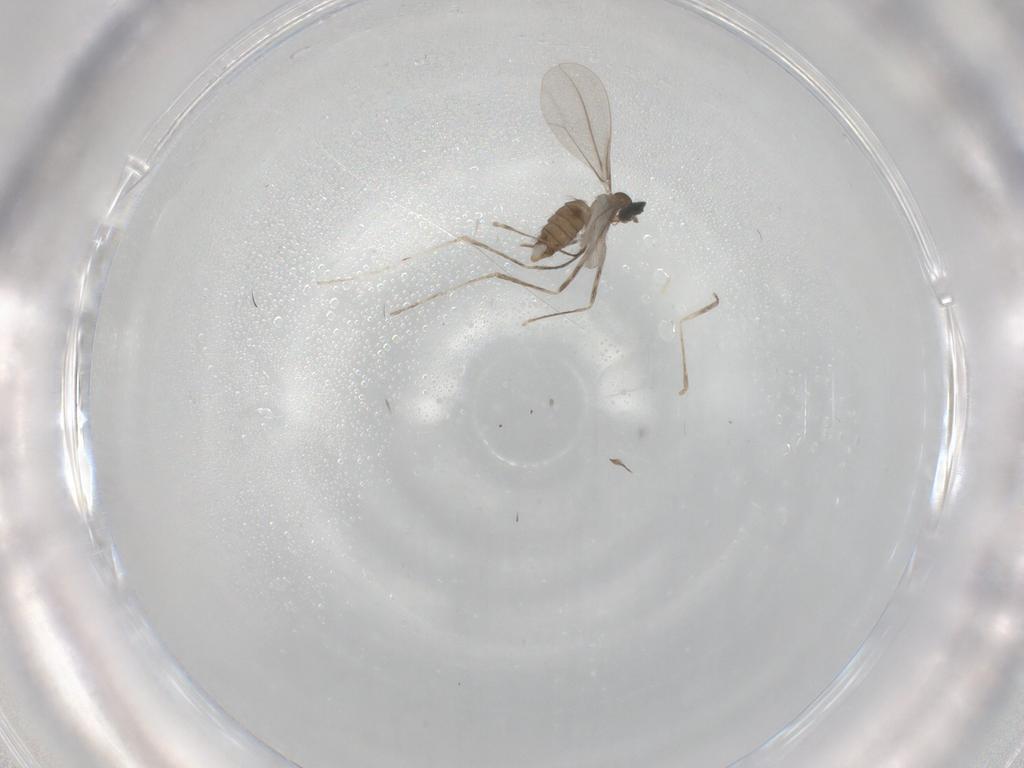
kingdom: Animalia
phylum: Arthropoda
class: Insecta
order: Diptera
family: Cecidomyiidae
